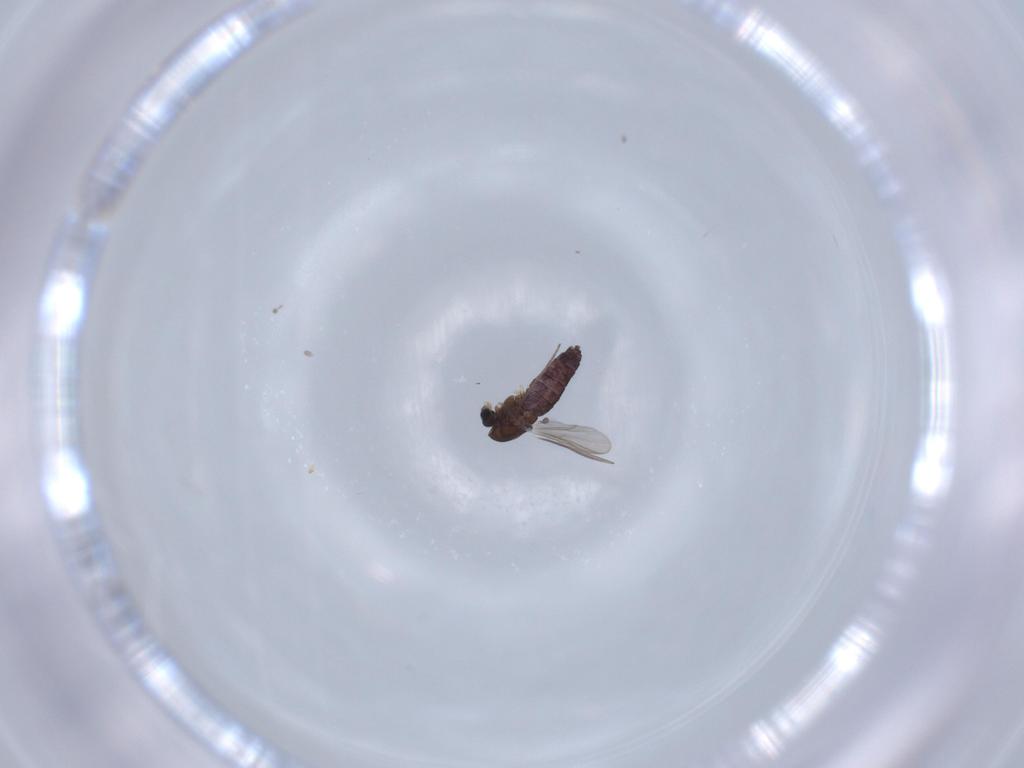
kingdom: Animalia
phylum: Arthropoda
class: Insecta
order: Diptera
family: Chironomidae
